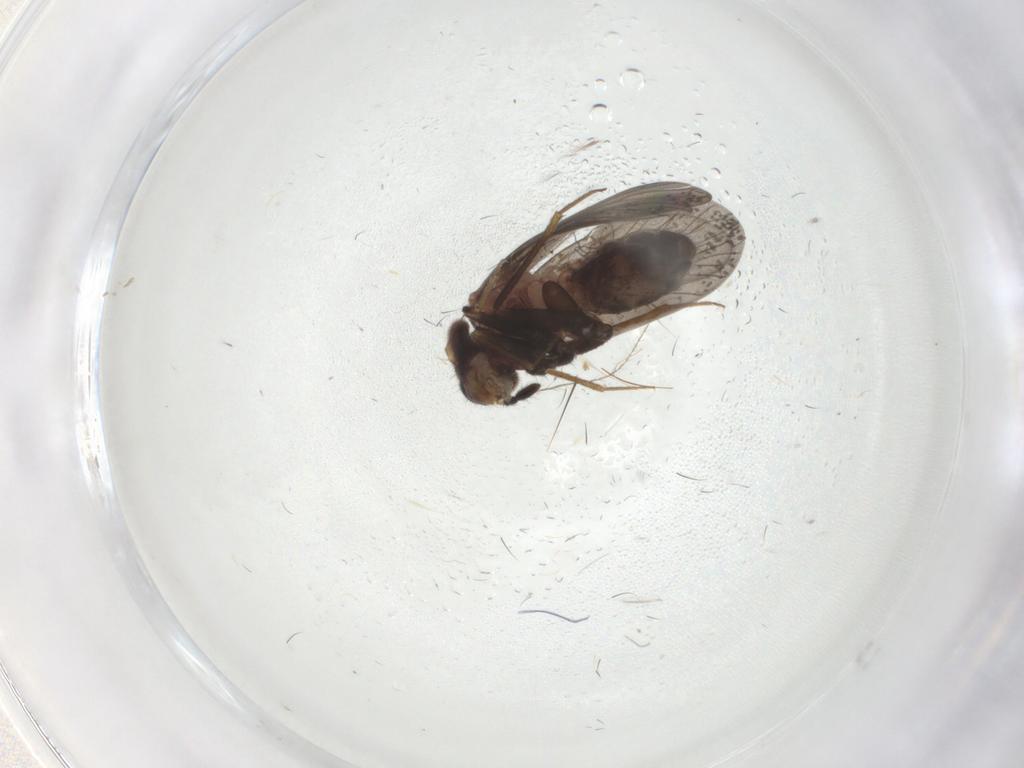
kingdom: Animalia
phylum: Arthropoda
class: Insecta
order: Psocodea
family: Lepidopsocidae
